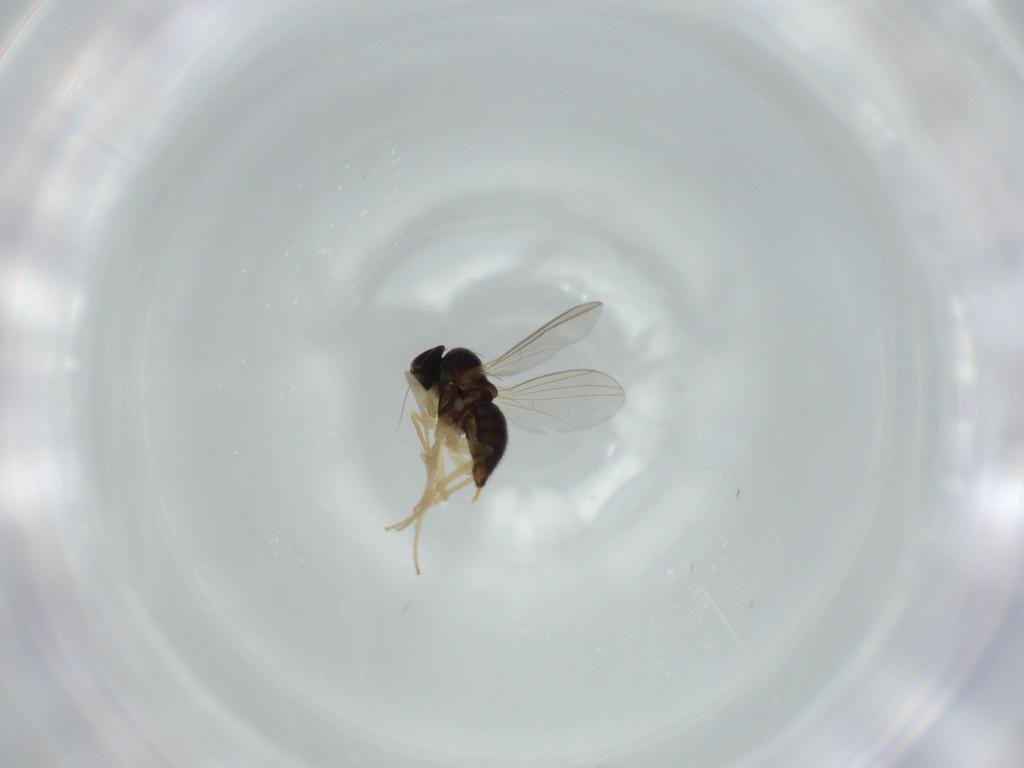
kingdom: Animalia
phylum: Arthropoda
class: Insecta
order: Diptera
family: Dolichopodidae
